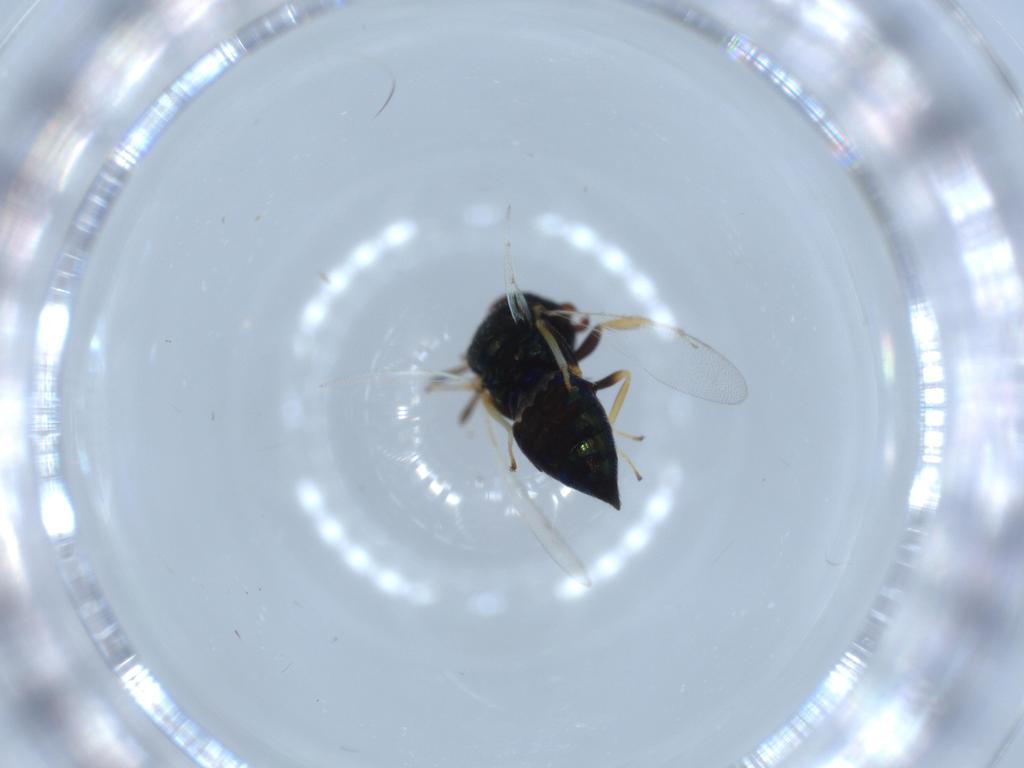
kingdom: Animalia
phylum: Arthropoda
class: Insecta
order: Hymenoptera
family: Pteromalidae
